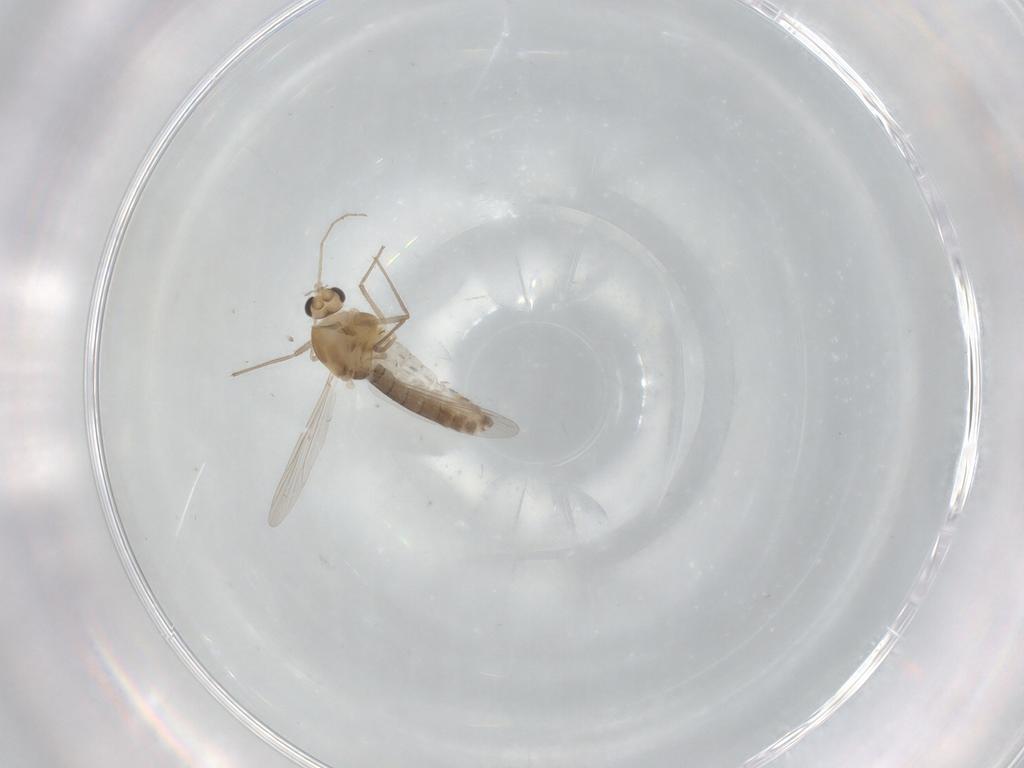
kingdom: Animalia
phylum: Arthropoda
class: Insecta
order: Diptera
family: Chironomidae
